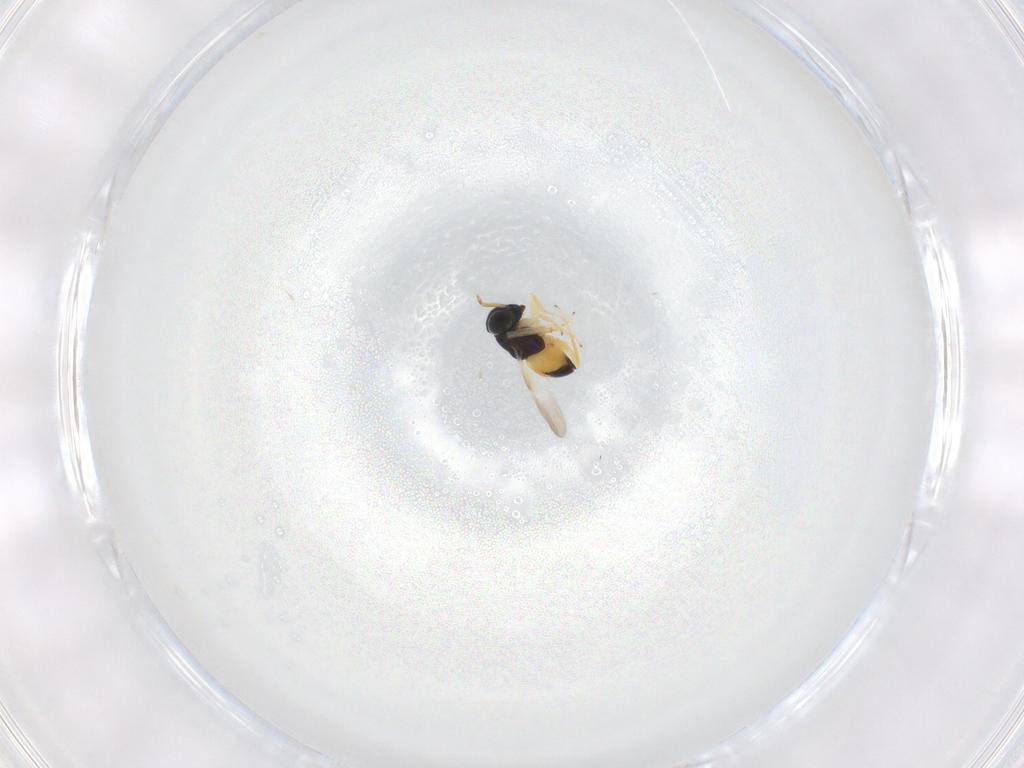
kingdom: Animalia
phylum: Arthropoda
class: Insecta
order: Hymenoptera
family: Encyrtidae
